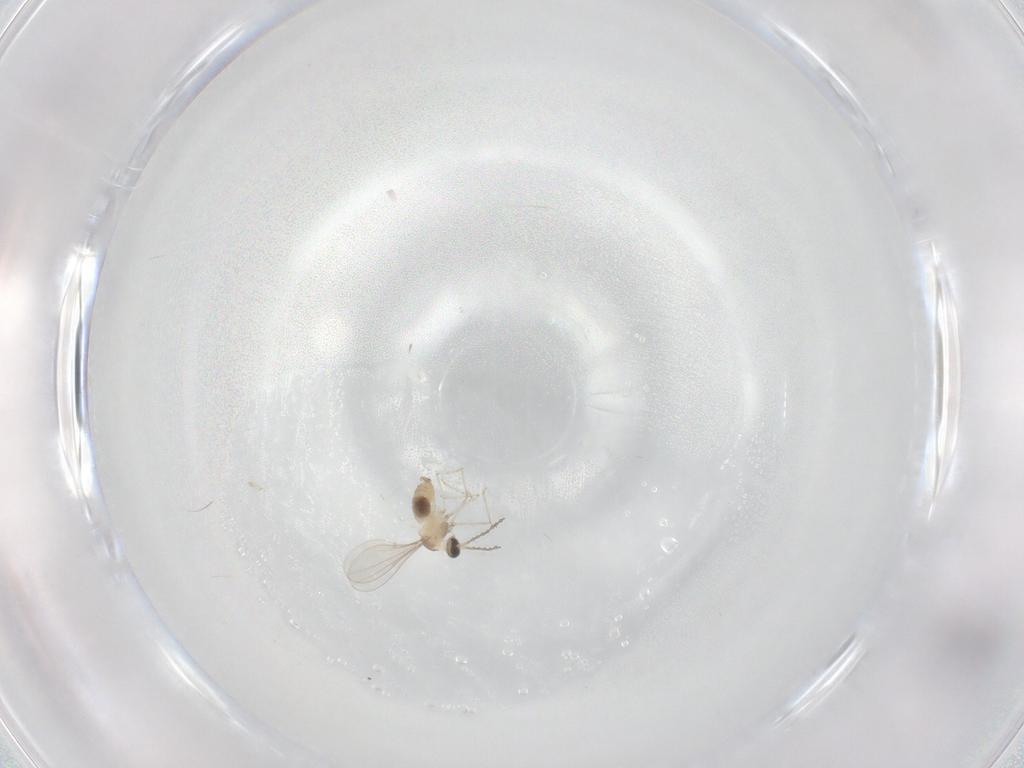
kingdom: Animalia
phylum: Arthropoda
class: Insecta
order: Diptera
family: Cecidomyiidae
